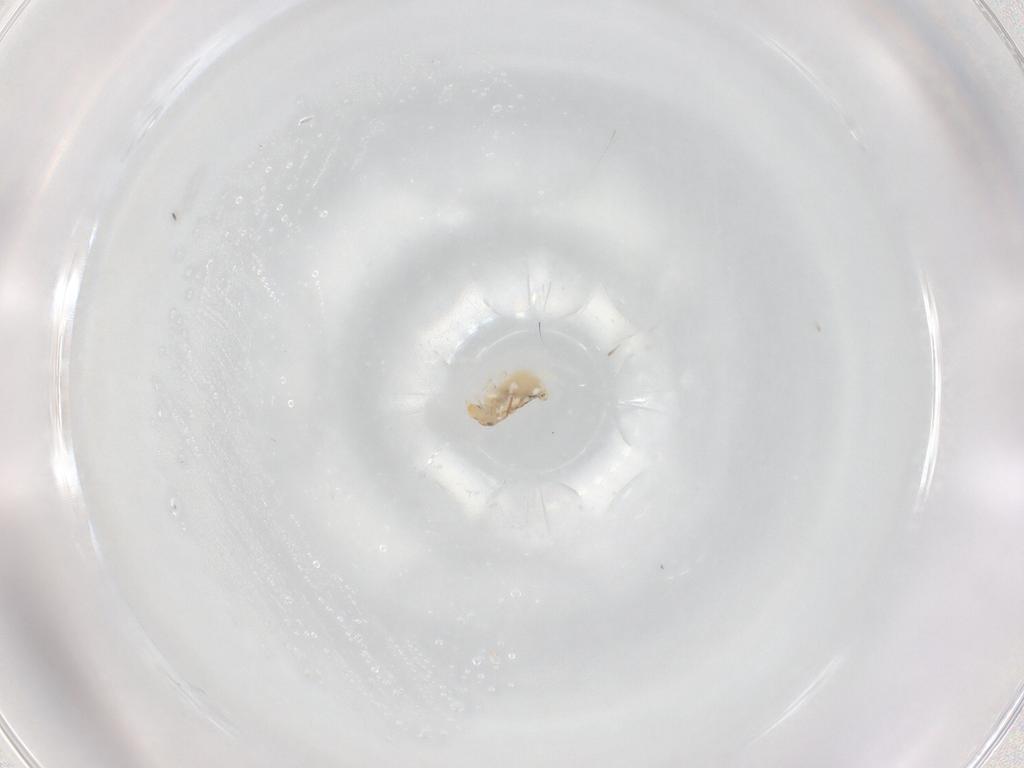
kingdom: Animalia
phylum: Arthropoda
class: Collembola
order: Symphypleona
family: Bourletiellidae
